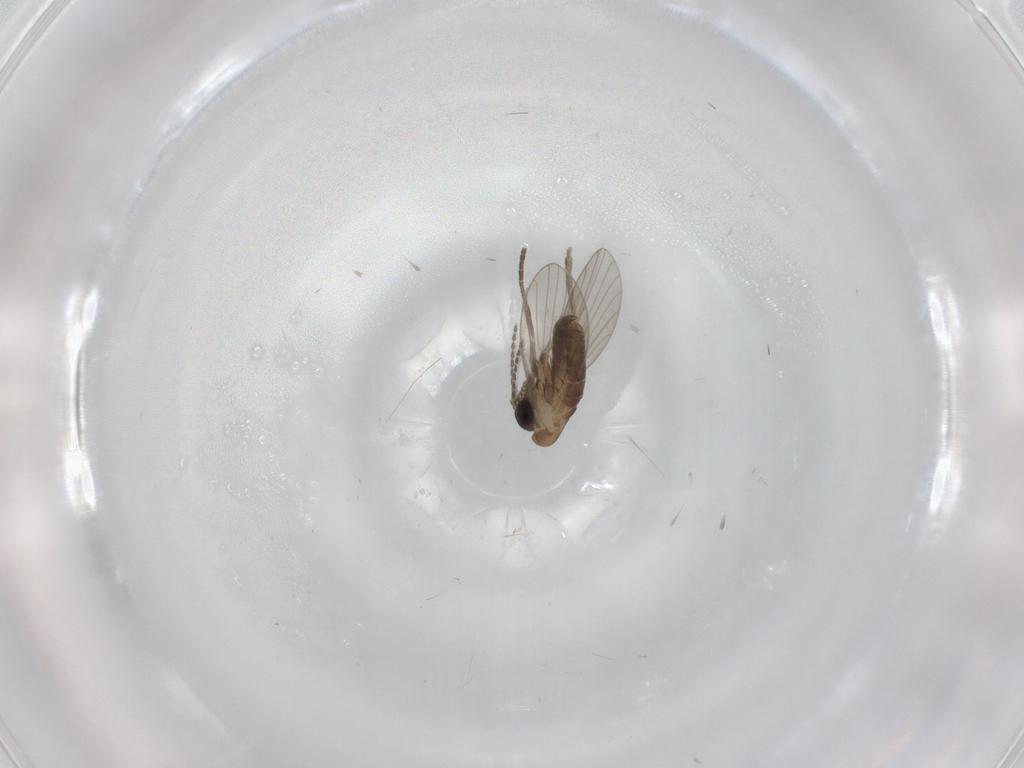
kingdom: Animalia
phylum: Arthropoda
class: Insecta
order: Diptera
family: Psychodidae
